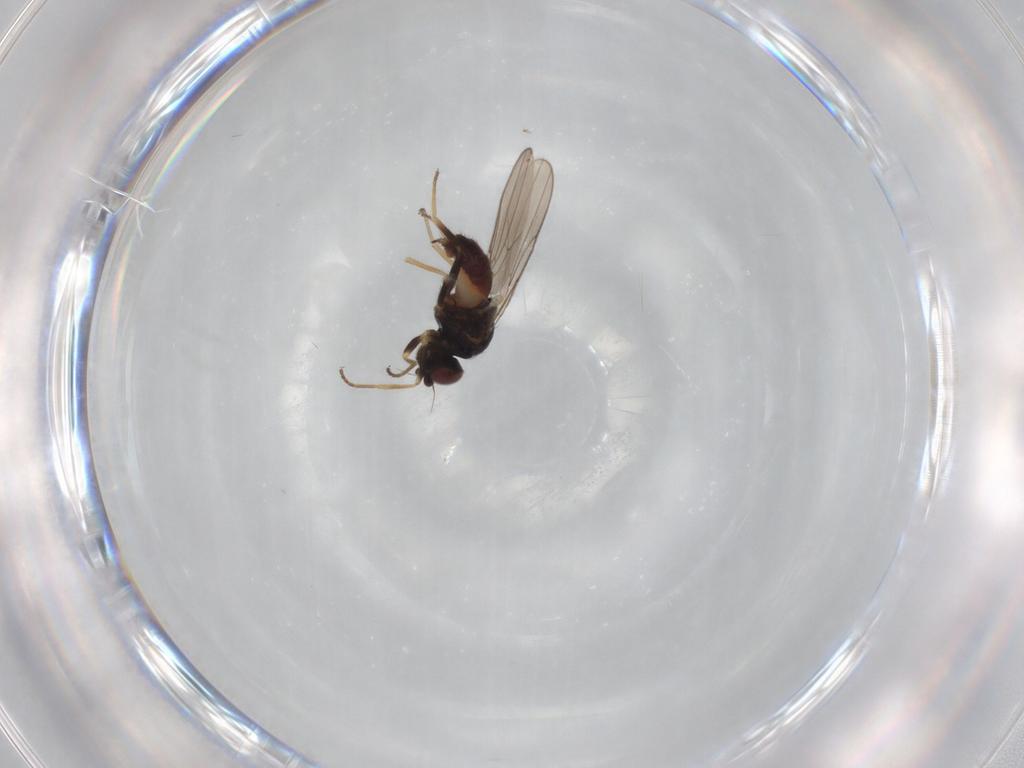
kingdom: Animalia
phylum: Arthropoda
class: Insecta
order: Diptera
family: Chloropidae
